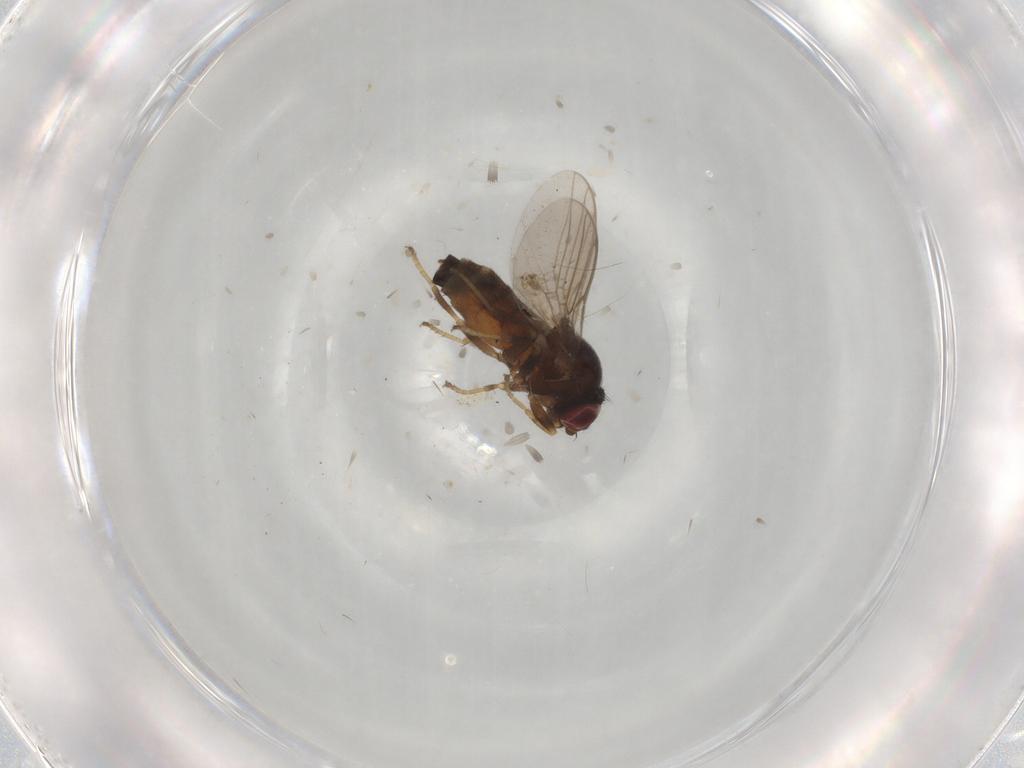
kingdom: Animalia
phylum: Arthropoda
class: Insecta
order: Diptera
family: Chloropidae
